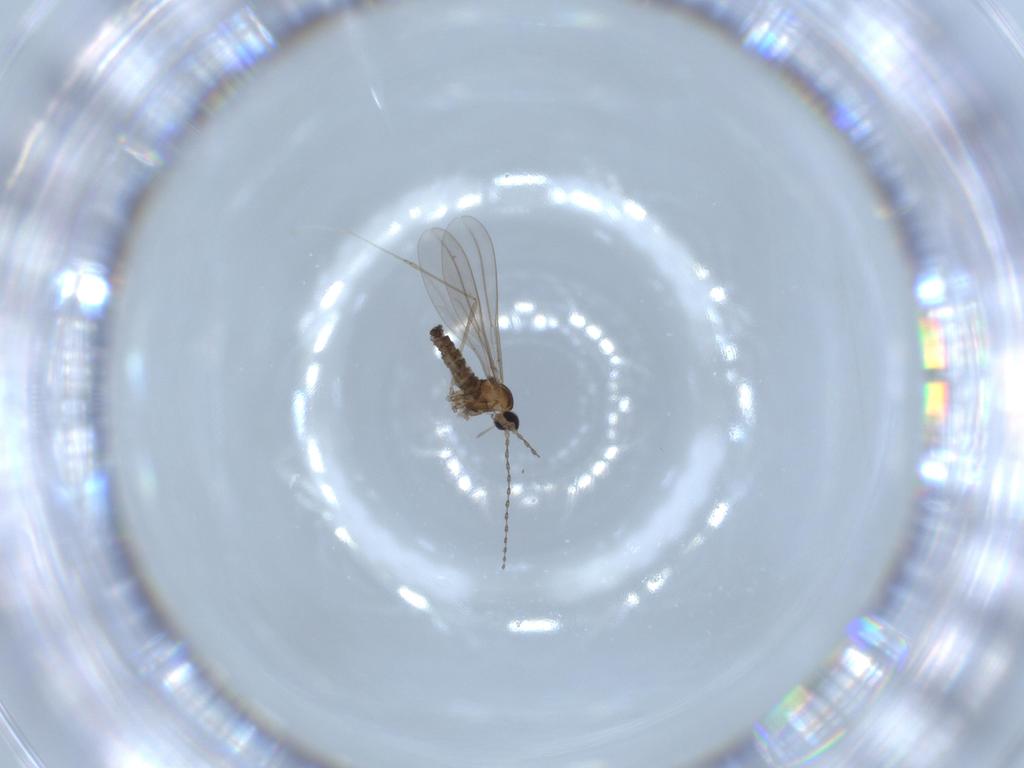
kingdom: Animalia
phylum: Arthropoda
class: Insecta
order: Diptera
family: Cecidomyiidae
